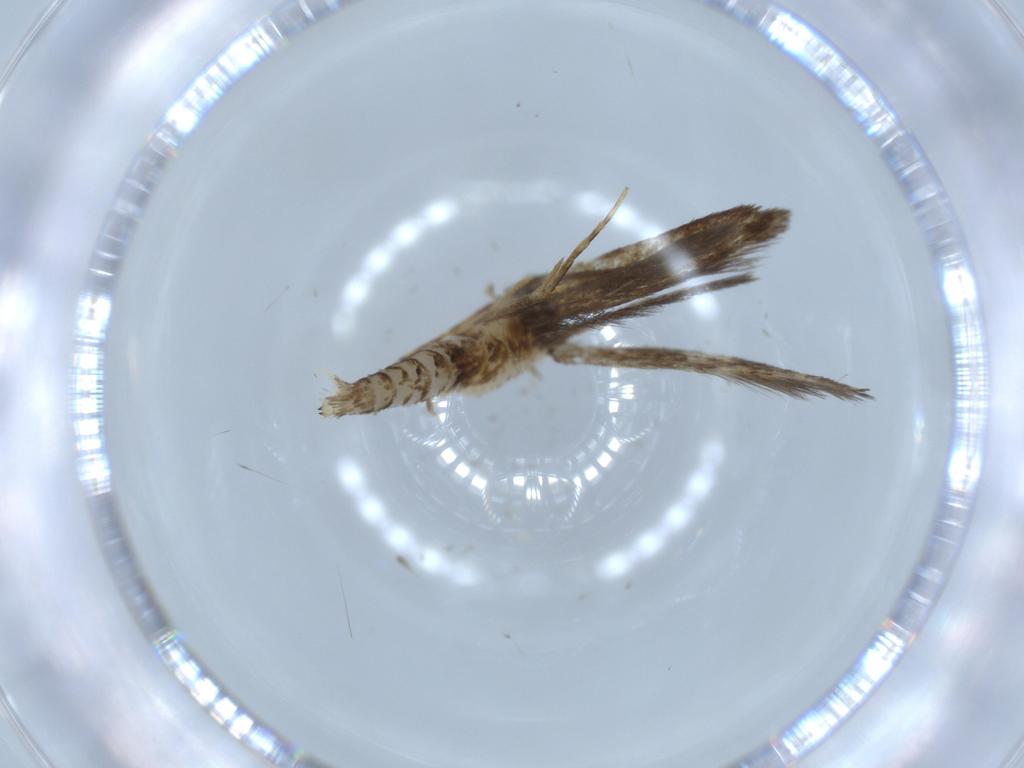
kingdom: Animalia
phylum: Arthropoda
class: Insecta
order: Lepidoptera
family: Tineidae
